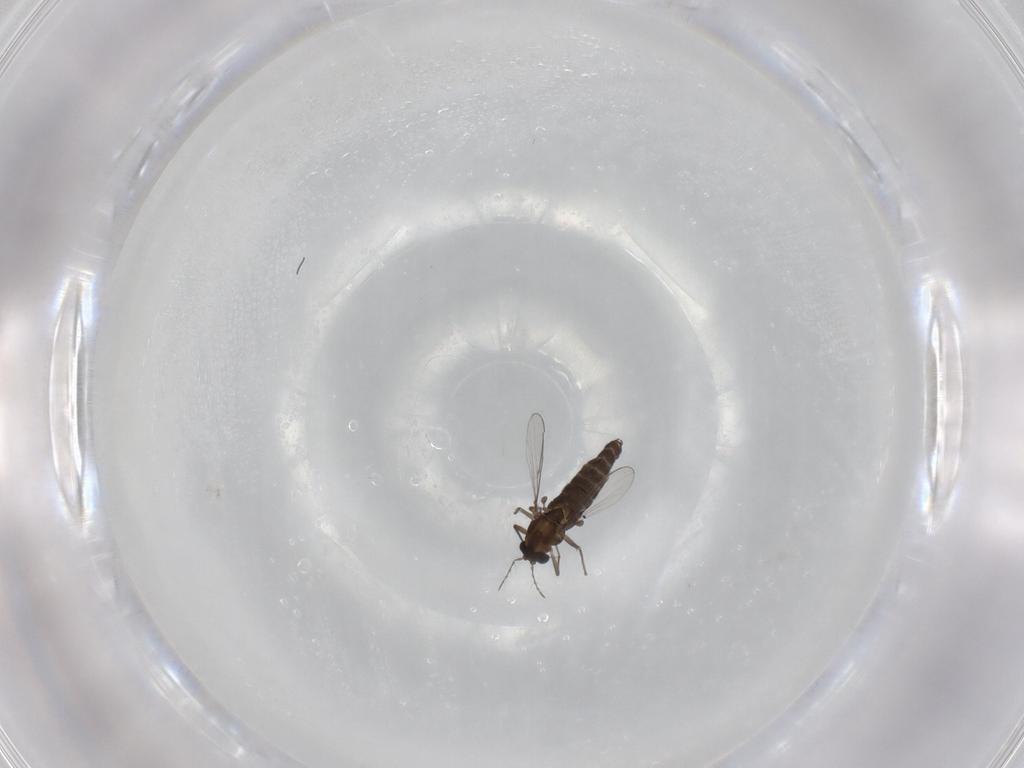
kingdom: Animalia
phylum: Arthropoda
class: Insecta
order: Diptera
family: Chironomidae
